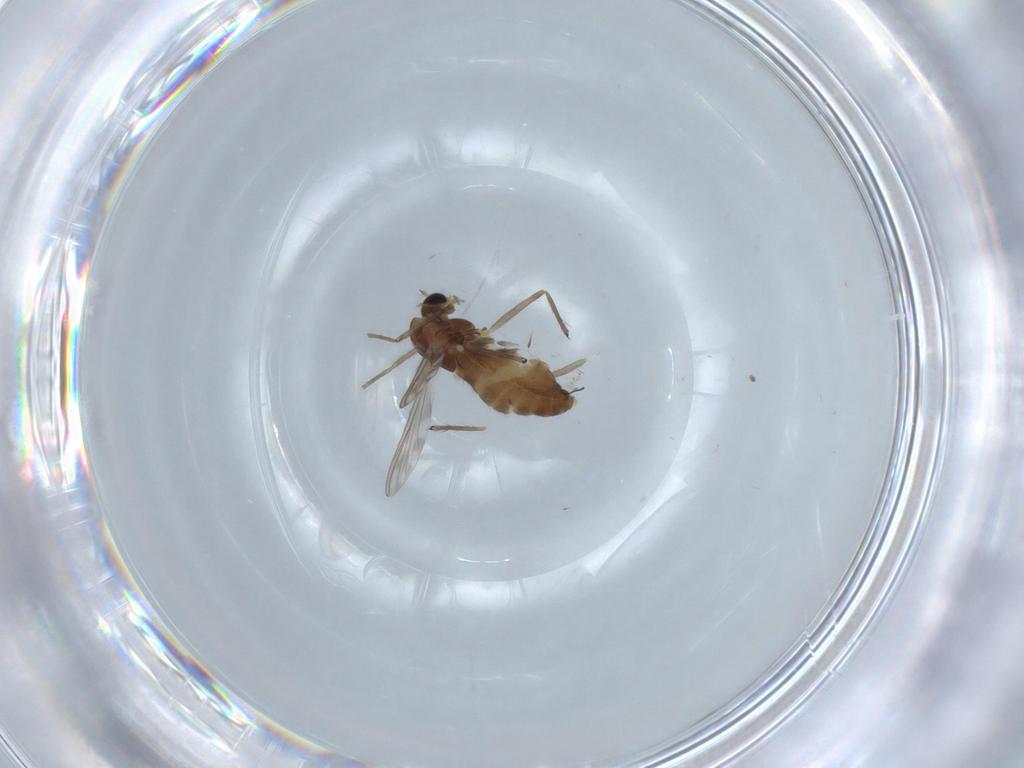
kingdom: Animalia
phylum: Arthropoda
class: Insecta
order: Diptera
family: Chironomidae
